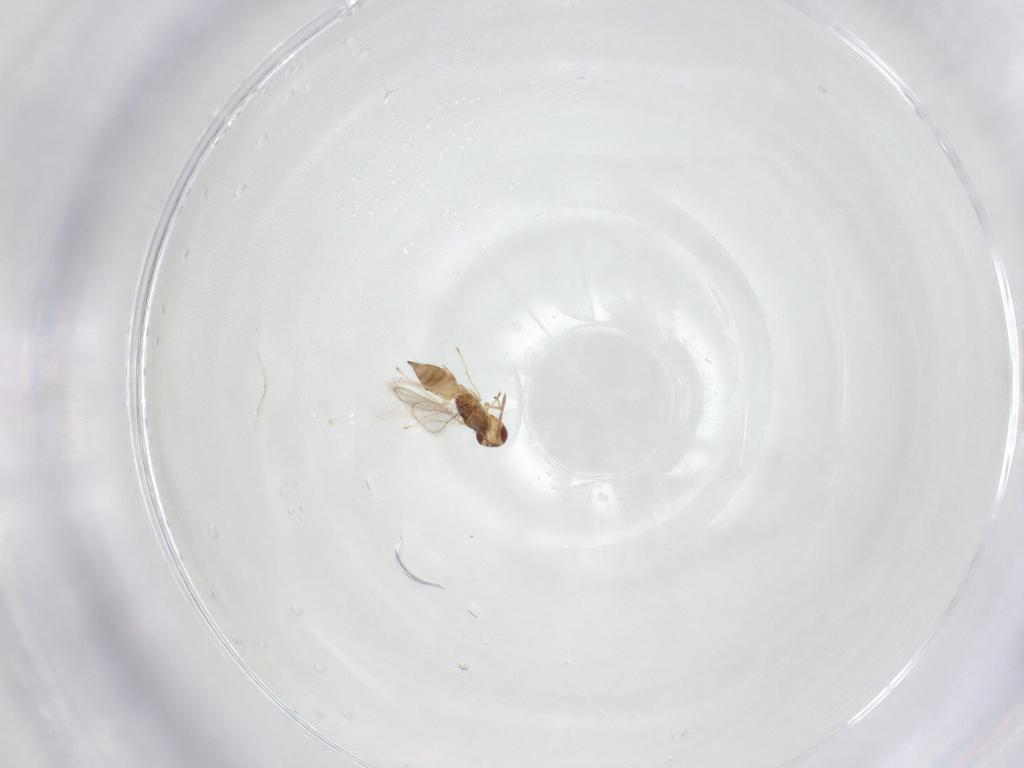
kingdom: Animalia
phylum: Arthropoda
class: Insecta
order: Hymenoptera
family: Eulophidae
